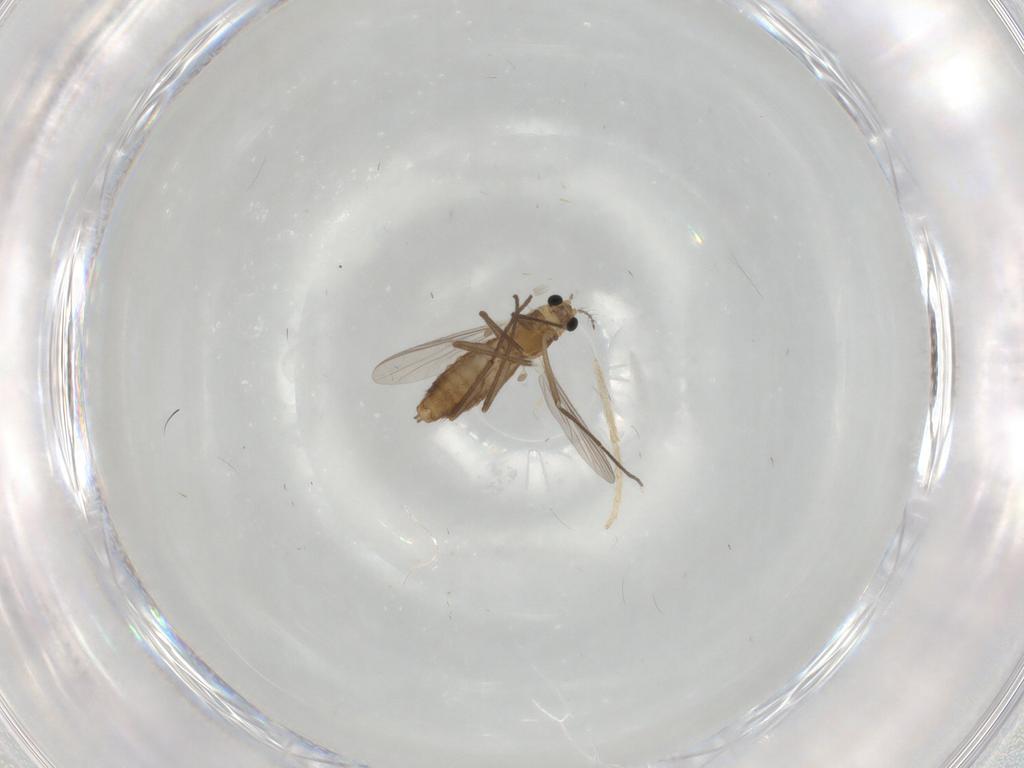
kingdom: Animalia
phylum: Arthropoda
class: Insecta
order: Diptera
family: Chironomidae
